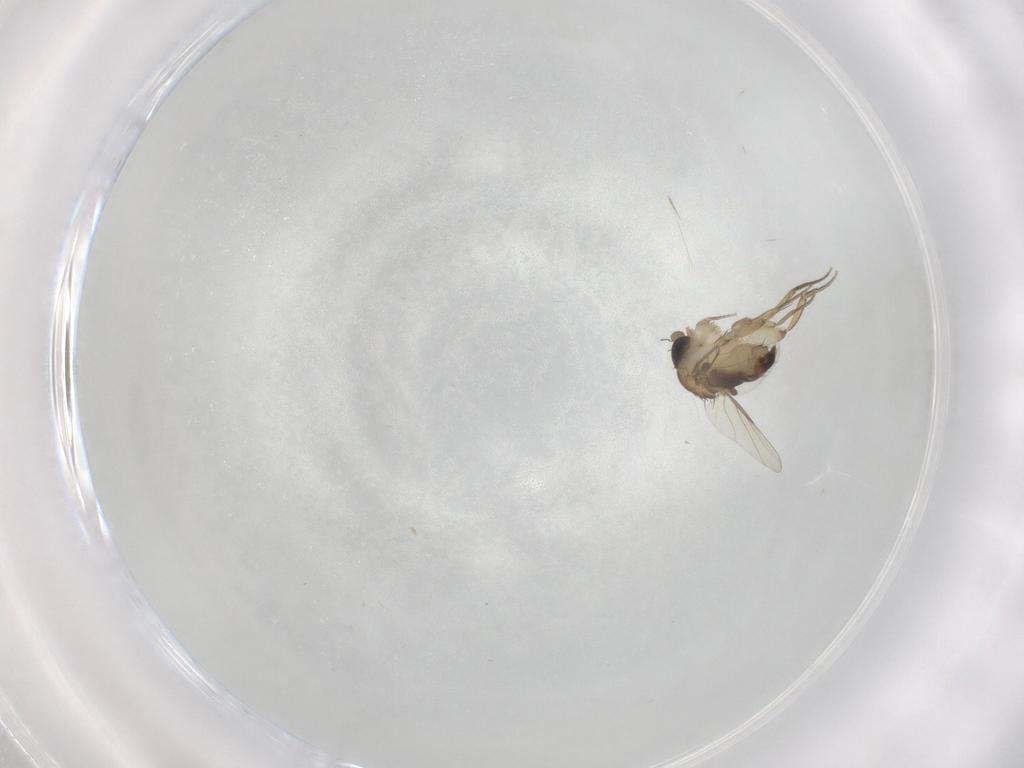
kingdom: Animalia
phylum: Arthropoda
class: Insecta
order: Diptera
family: Phoridae
